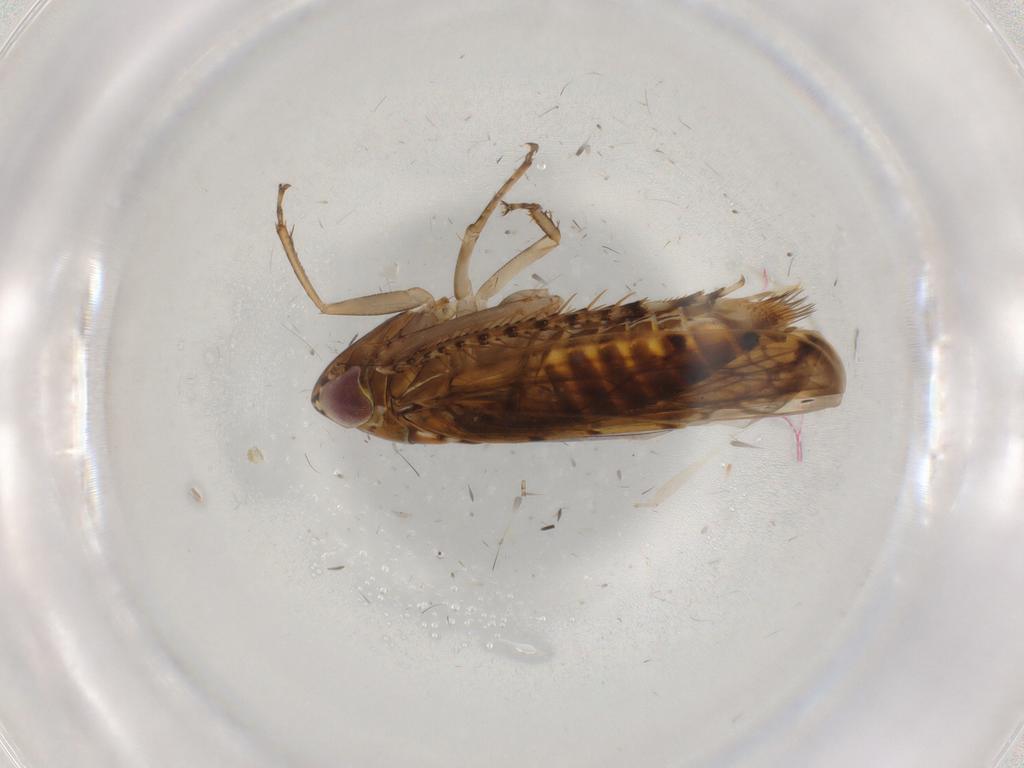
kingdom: Animalia
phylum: Arthropoda
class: Insecta
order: Hemiptera
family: Cicadellidae
